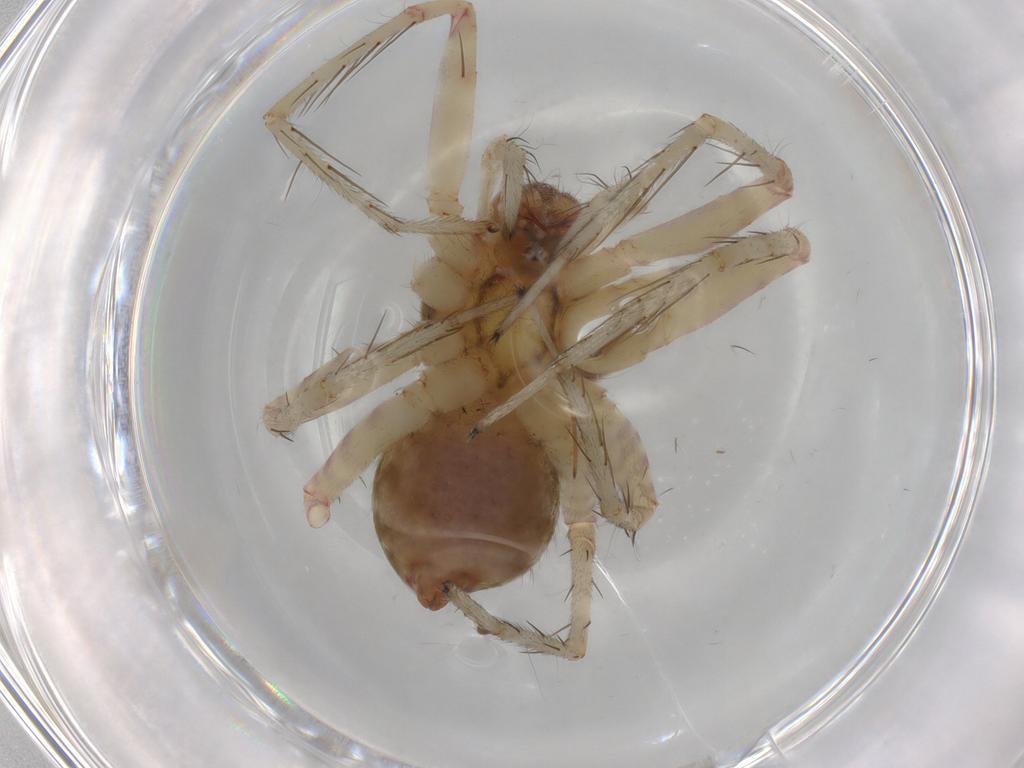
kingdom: Animalia
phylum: Arthropoda
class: Arachnida
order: Araneae
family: Ctenidae
